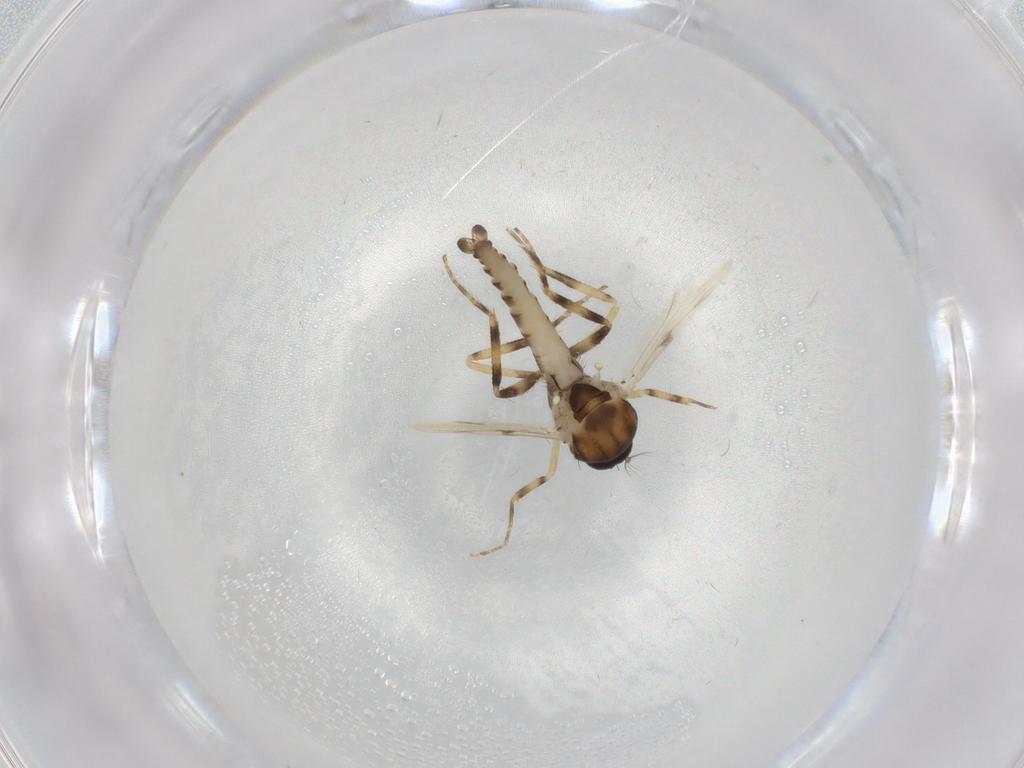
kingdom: Animalia
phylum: Arthropoda
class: Insecta
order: Diptera
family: Ceratopogonidae
